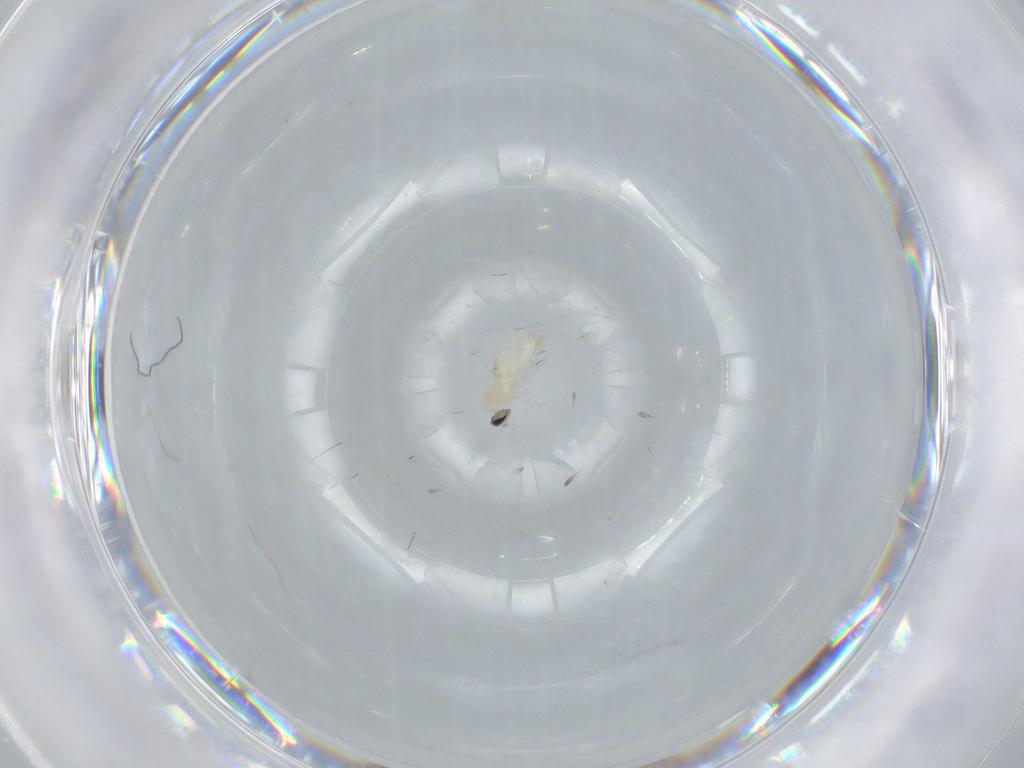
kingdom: Animalia
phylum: Arthropoda
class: Insecta
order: Diptera
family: Cecidomyiidae
